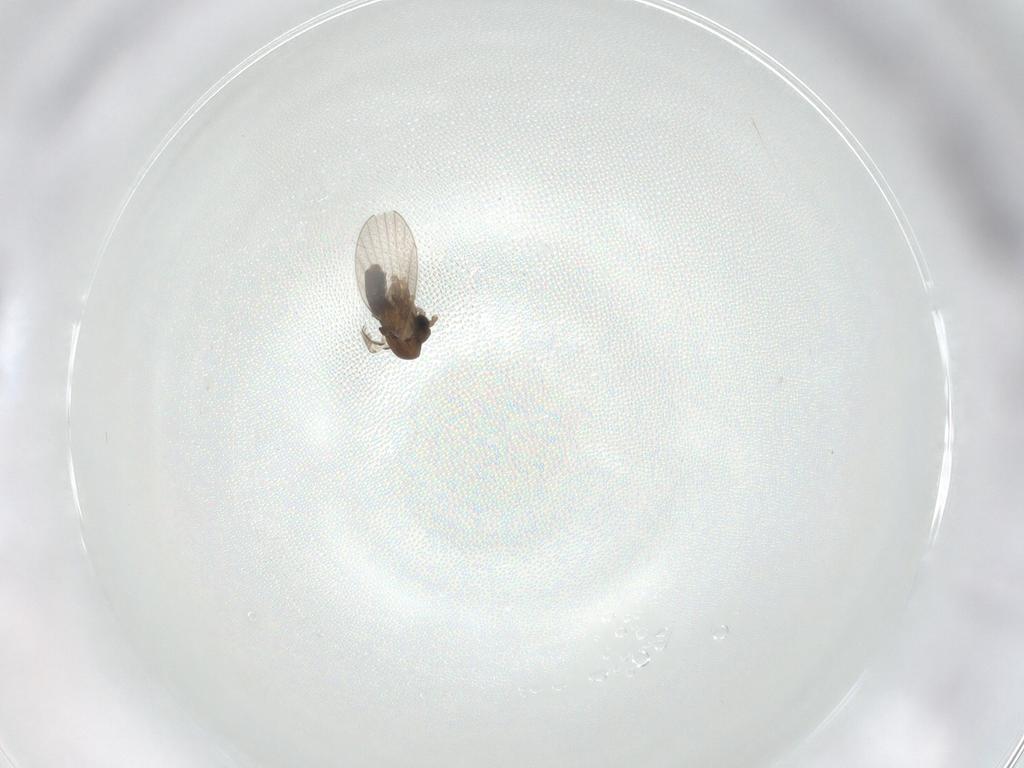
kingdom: Animalia
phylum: Arthropoda
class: Insecta
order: Diptera
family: Psychodidae
